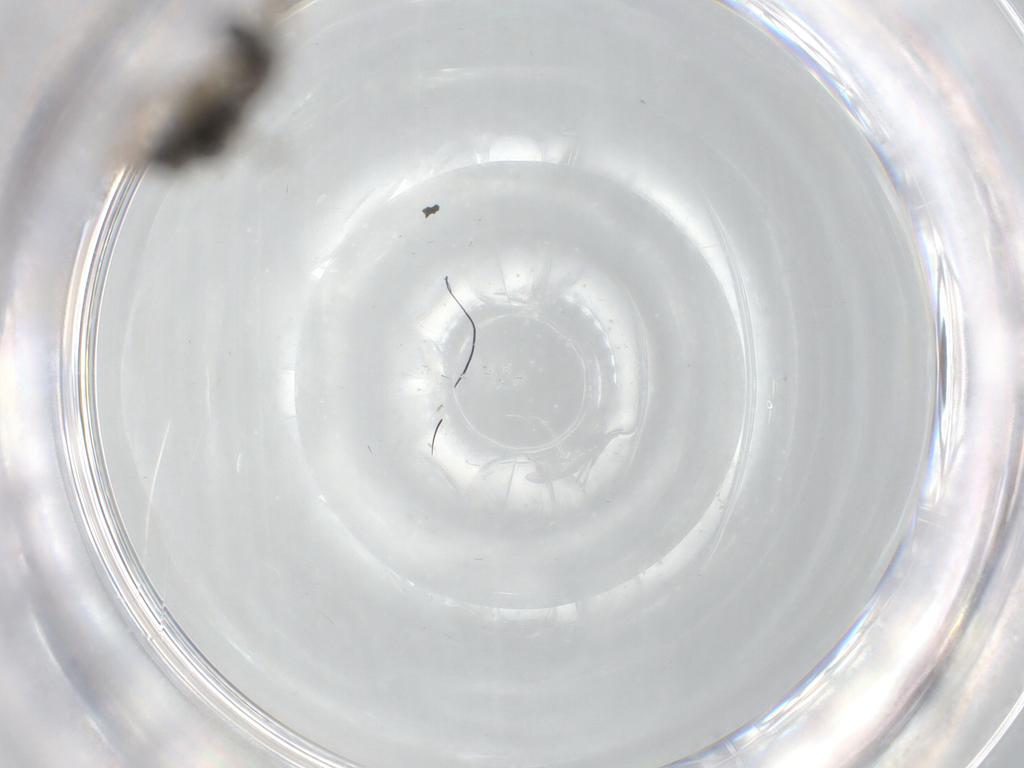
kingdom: Animalia
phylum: Arthropoda
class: Insecta
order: Diptera
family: Sciaridae
